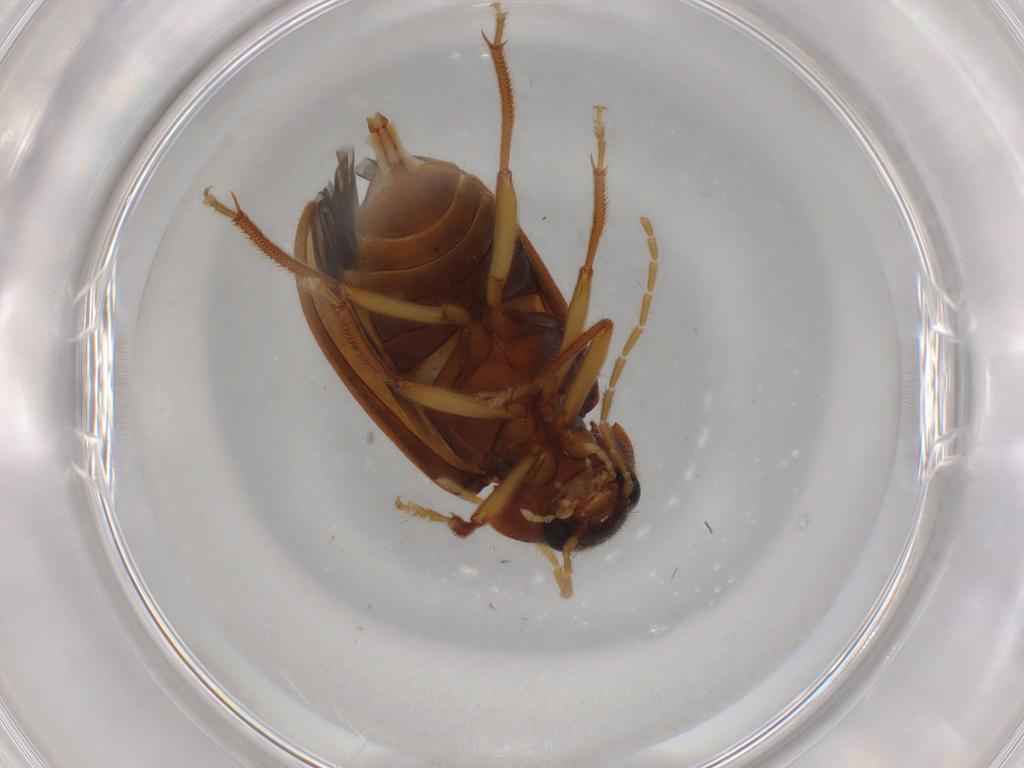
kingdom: Animalia
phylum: Arthropoda
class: Insecta
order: Coleoptera
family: Ptilodactylidae
